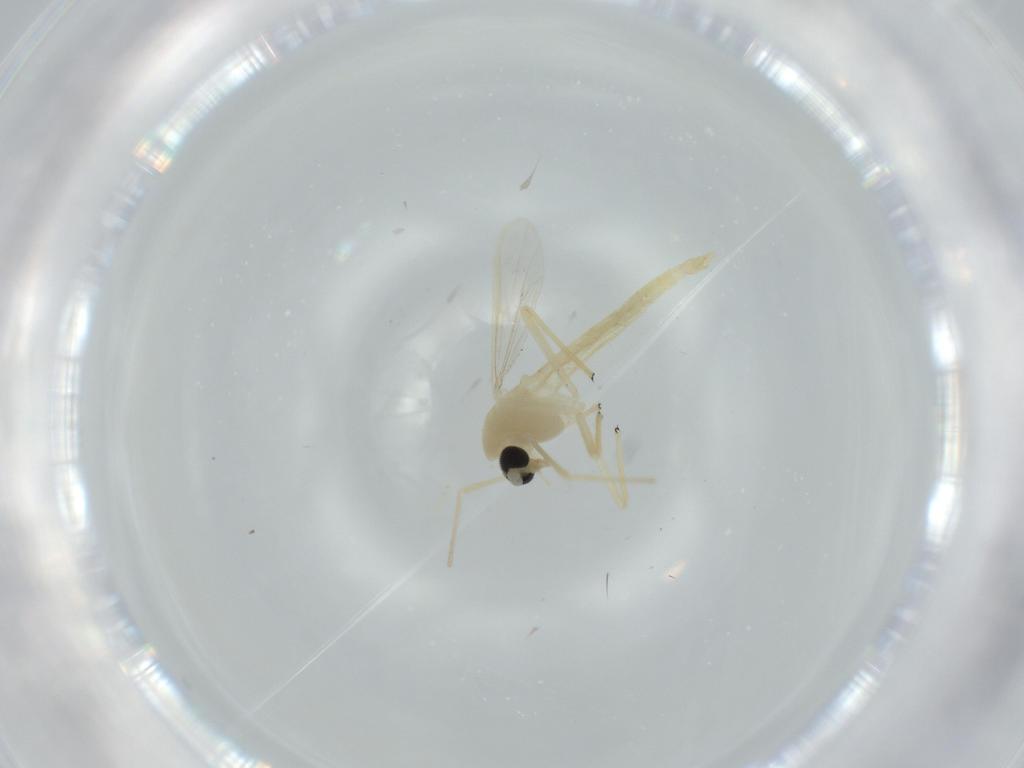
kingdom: Animalia
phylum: Arthropoda
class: Insecta
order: Diptera
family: Chironomidae
